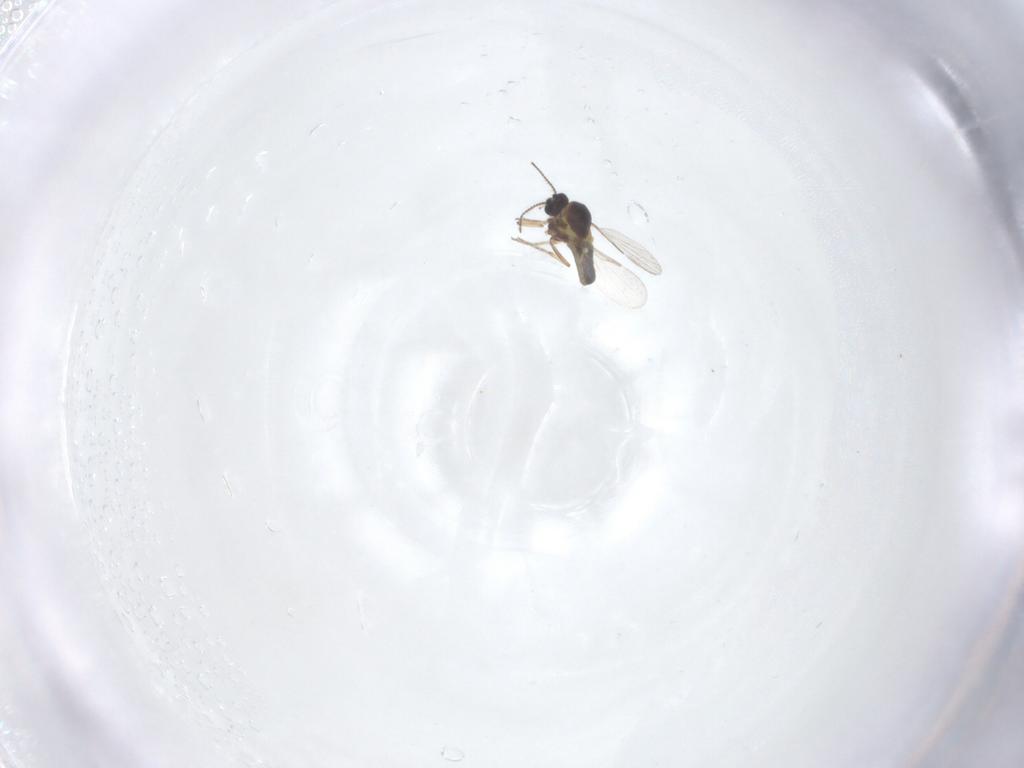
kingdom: Animalia
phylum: Arthropoda
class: Insecta
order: Diptera
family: Ceratopogonidae
